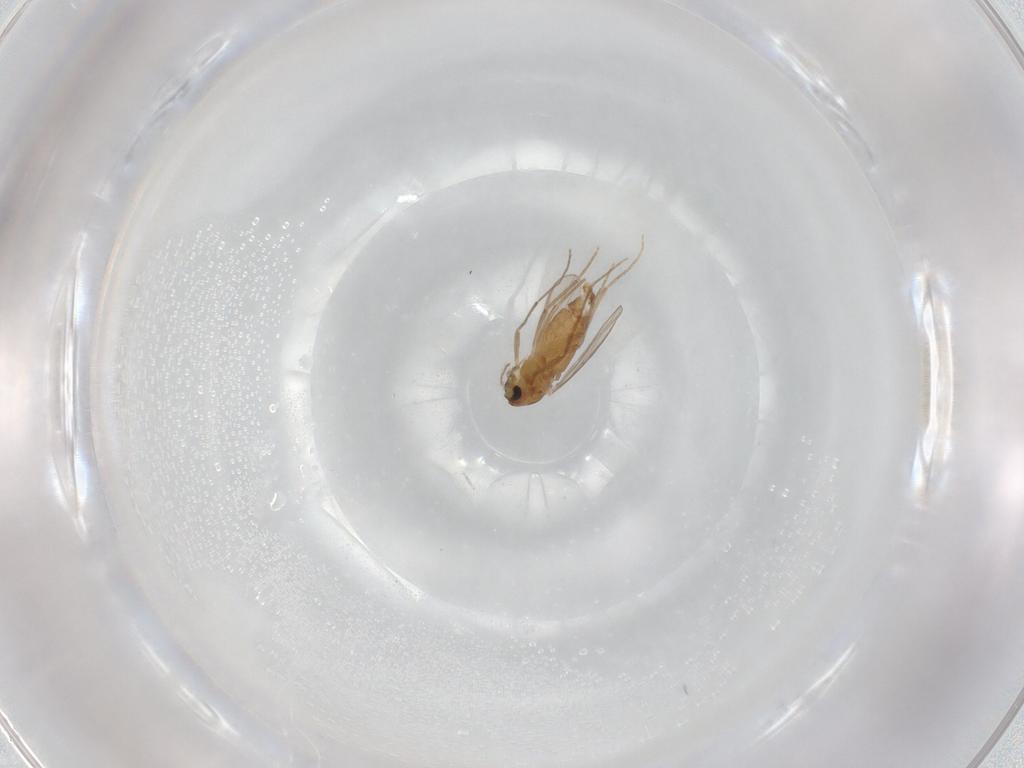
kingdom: Animalia
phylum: Arthropoda
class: Insecta
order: Diptera
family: Chironomidae
